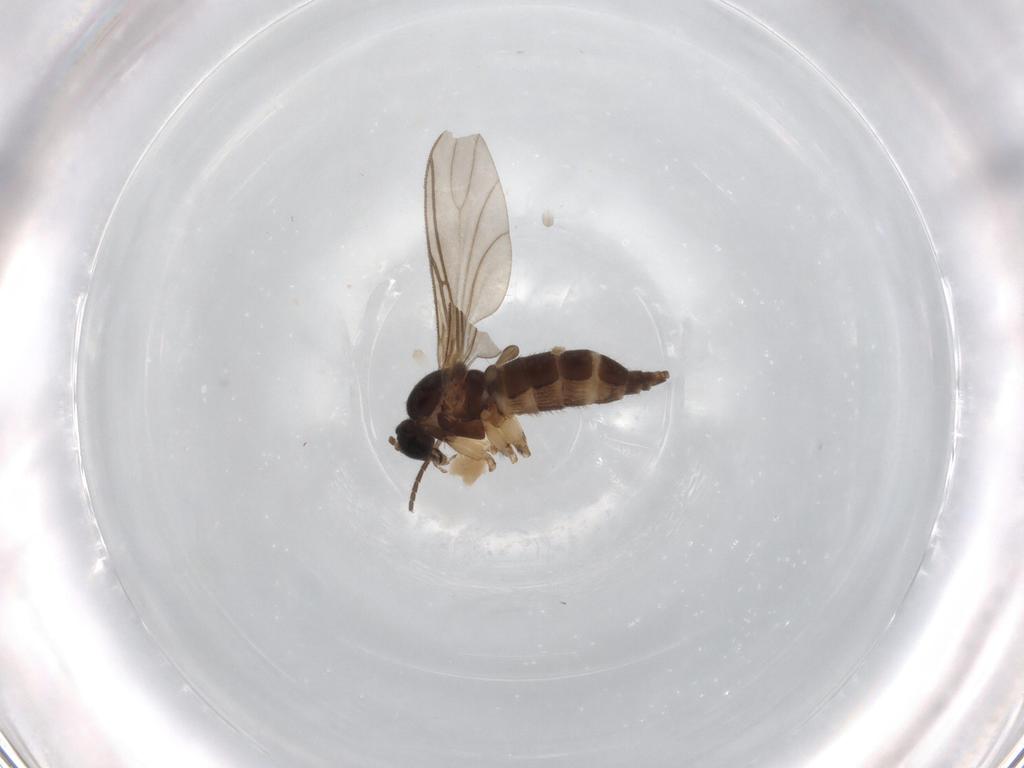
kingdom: Animalia
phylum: Arthropoda
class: Insecta
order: Diptera
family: Sciaridae
